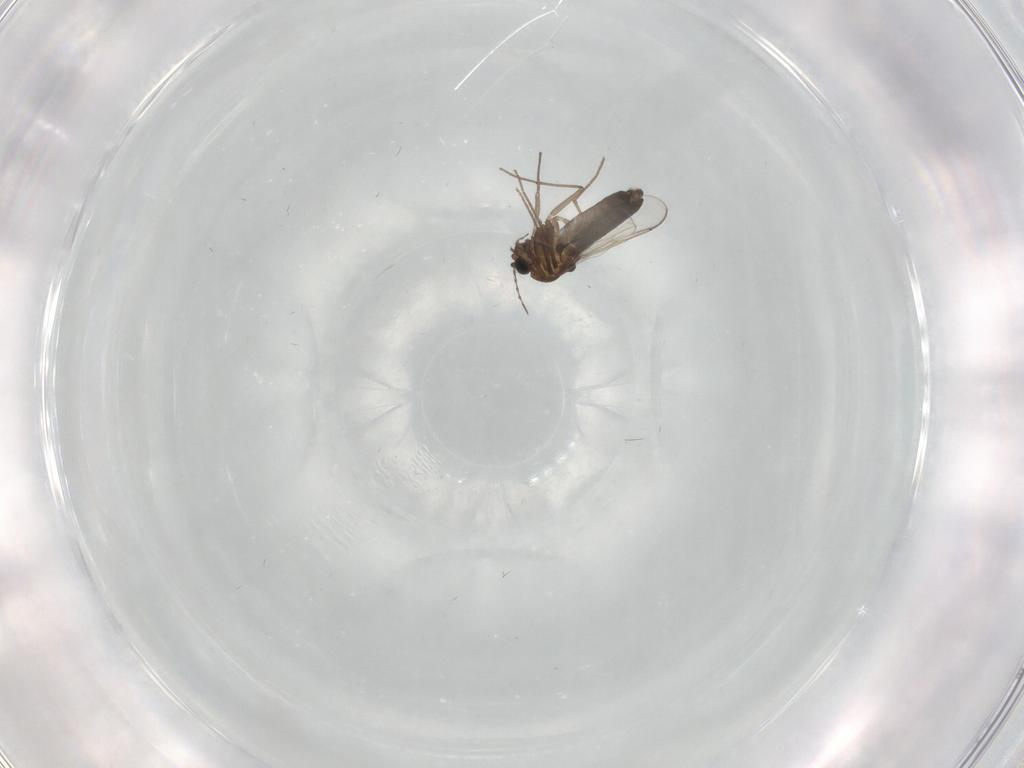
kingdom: Animalia
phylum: Arthropoda
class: Insecta
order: Diptera
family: Chironomidae
